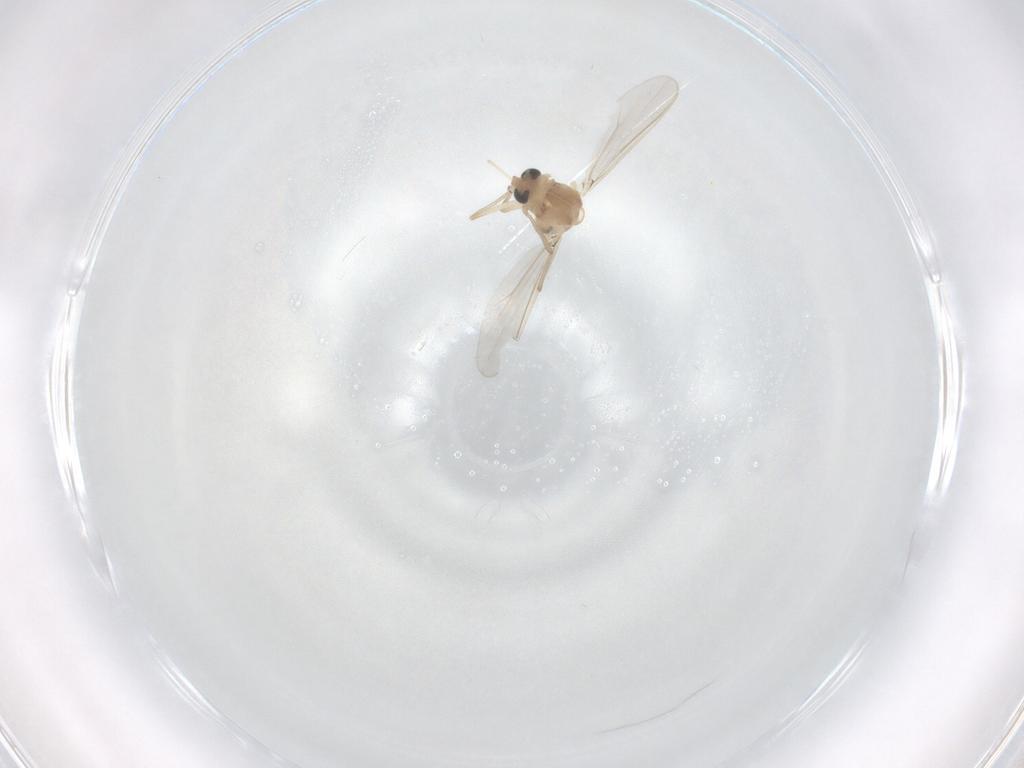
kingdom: Animalia
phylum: Arthropoda
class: Insecta
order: Diptera
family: Chironomidae
